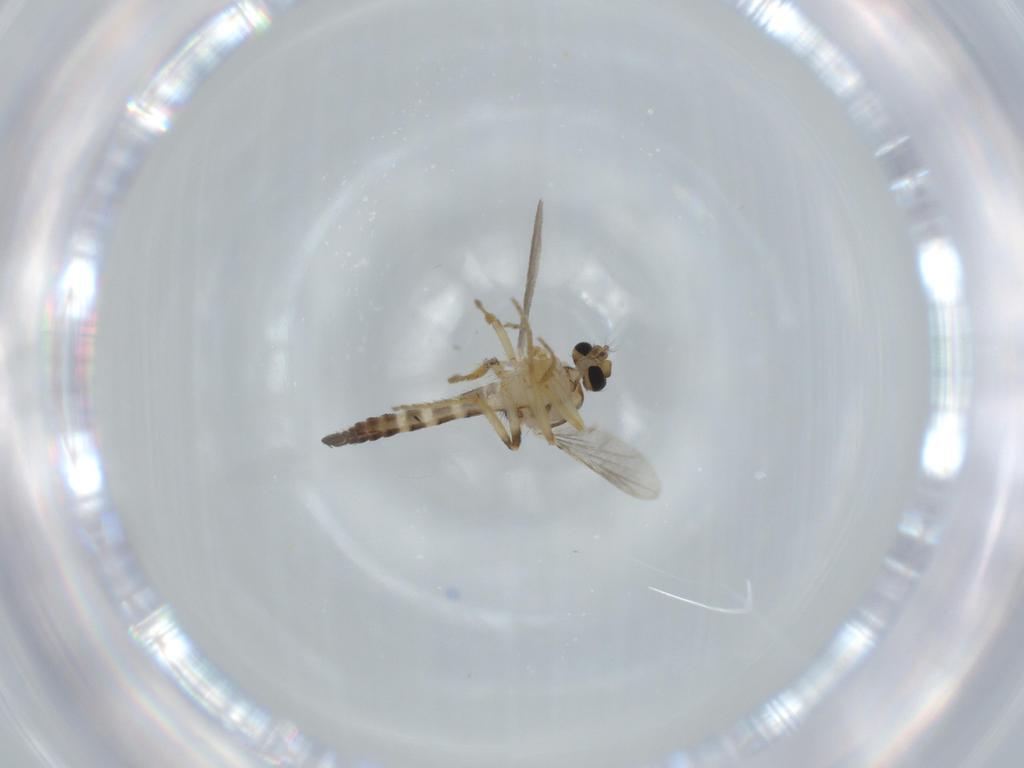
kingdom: Animalia
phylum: Arthropoda
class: Insecta
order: Diptera
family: Ceratopogonidae
